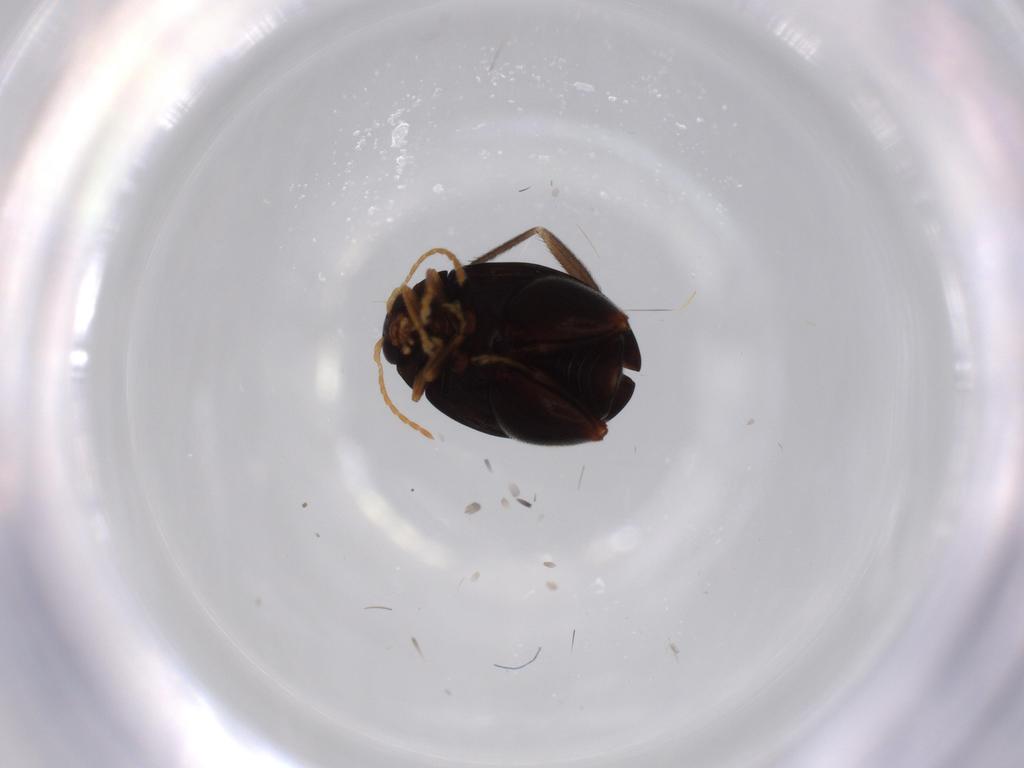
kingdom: Animalia
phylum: Arthropoda
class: Insecta
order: Coleoptera
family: Chrysomelidae
